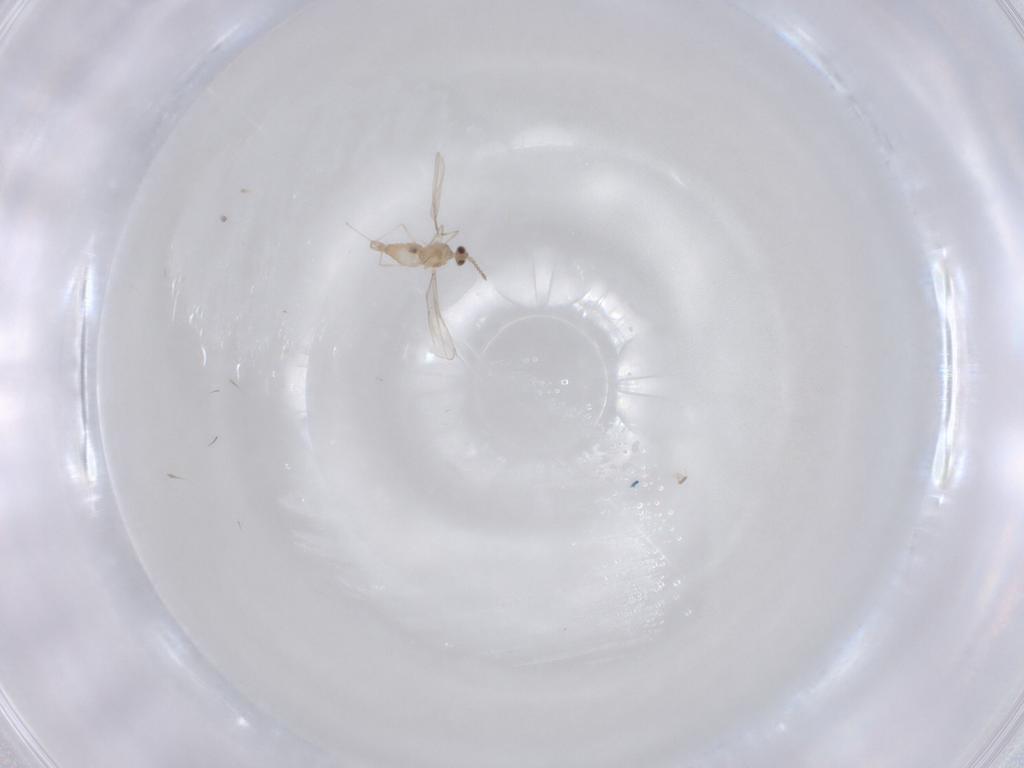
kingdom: Animalia
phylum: Arthropoda
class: Insecta
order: Diptera
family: Cecidomyiidae
